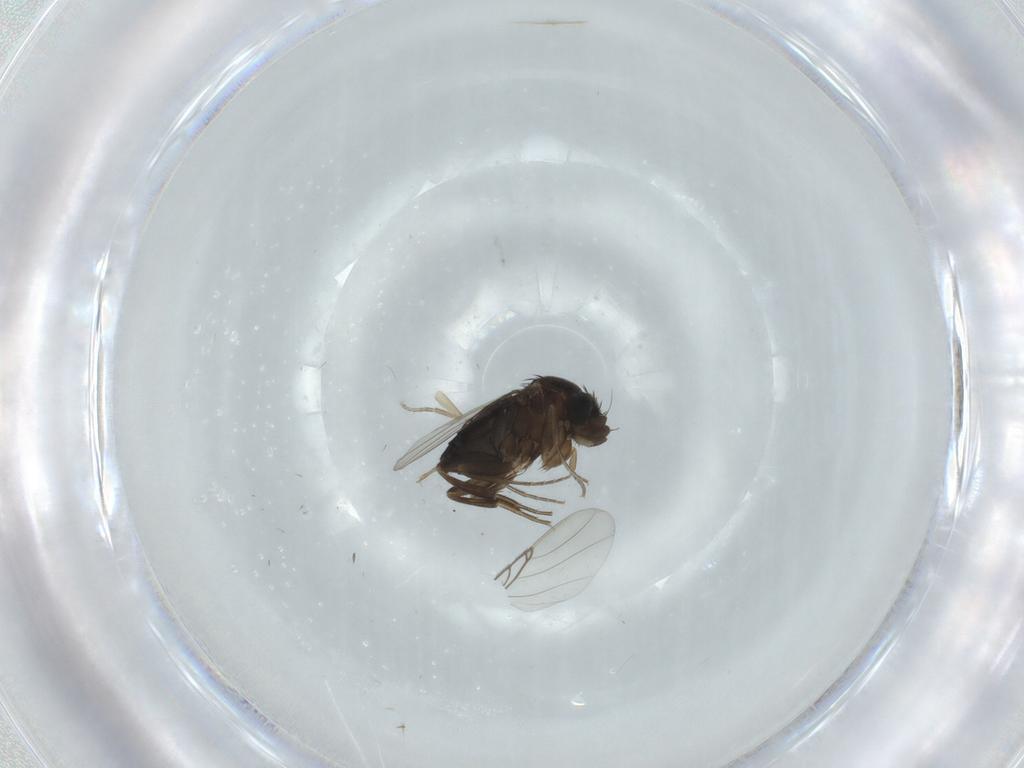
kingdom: Animalia
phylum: Arthropoda
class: Insecta
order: Diptera
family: Phoridae
